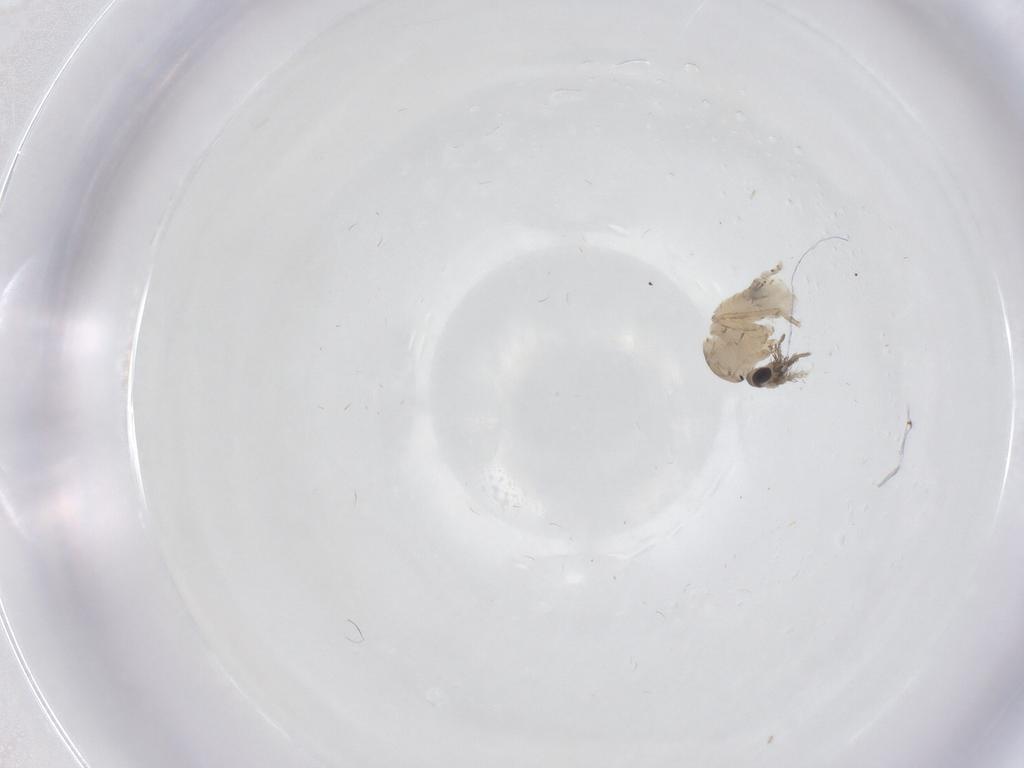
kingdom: Animalia
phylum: Arthropoda
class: Insecta
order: Diptera
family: Psychodidae
